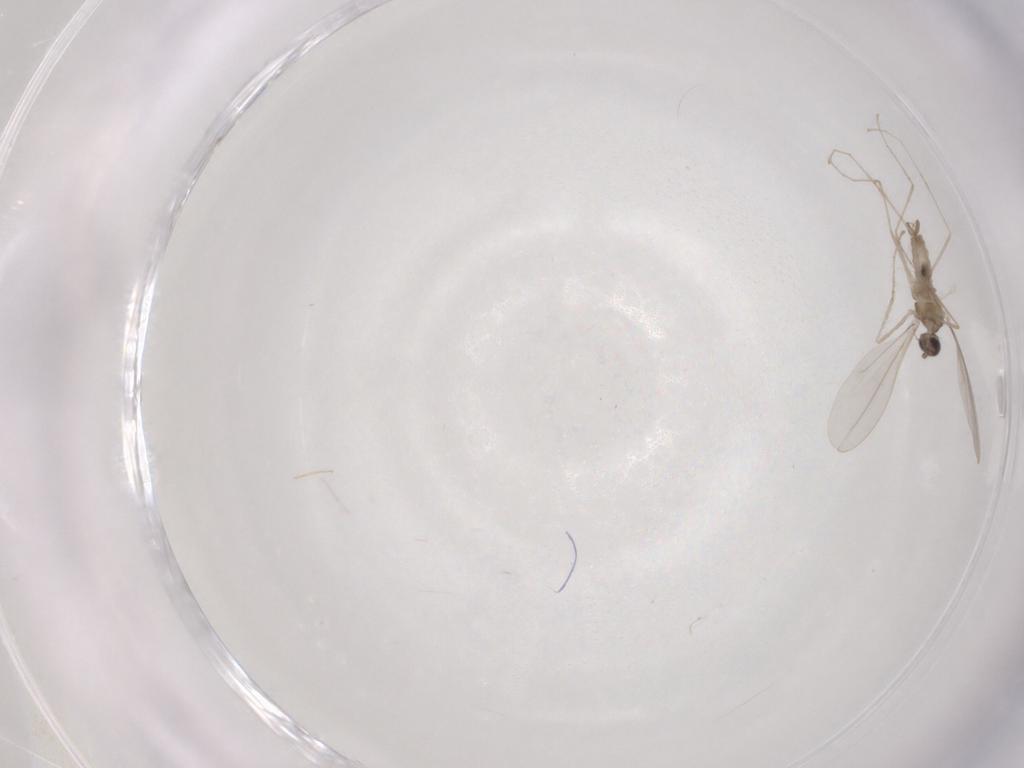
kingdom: Animalia
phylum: Arthropoda
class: Insecta
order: Diptera
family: Cecidomyiidae
